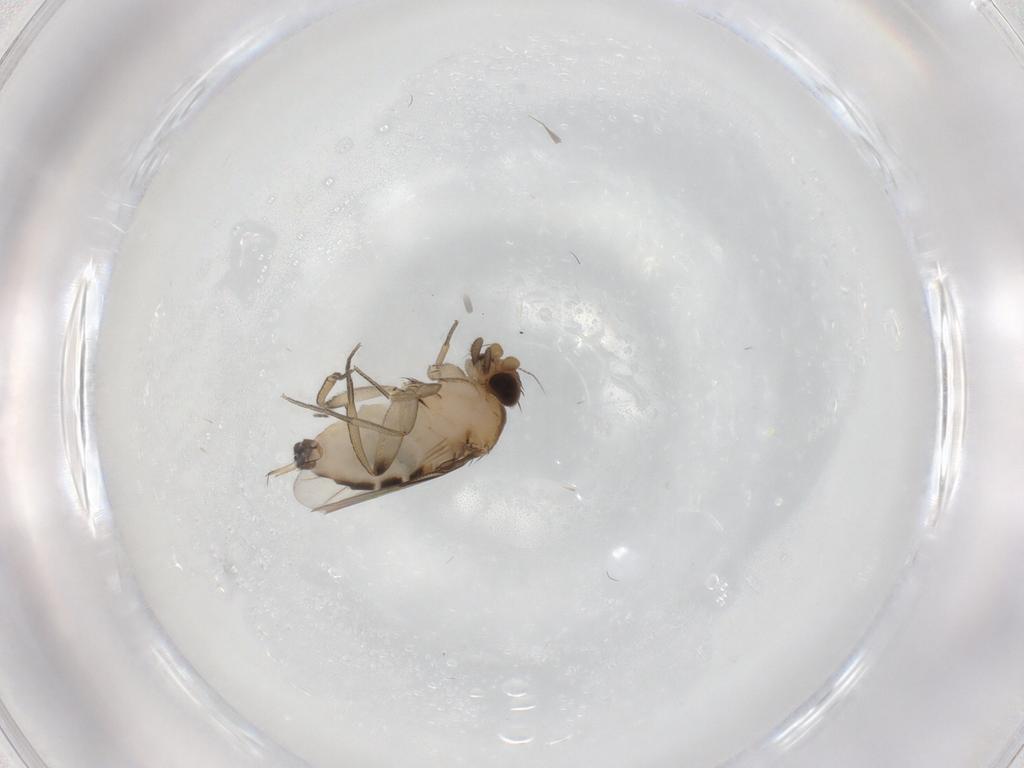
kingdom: Animalia
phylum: Arthropoda
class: Insecta
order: Diptera
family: Phoridae
